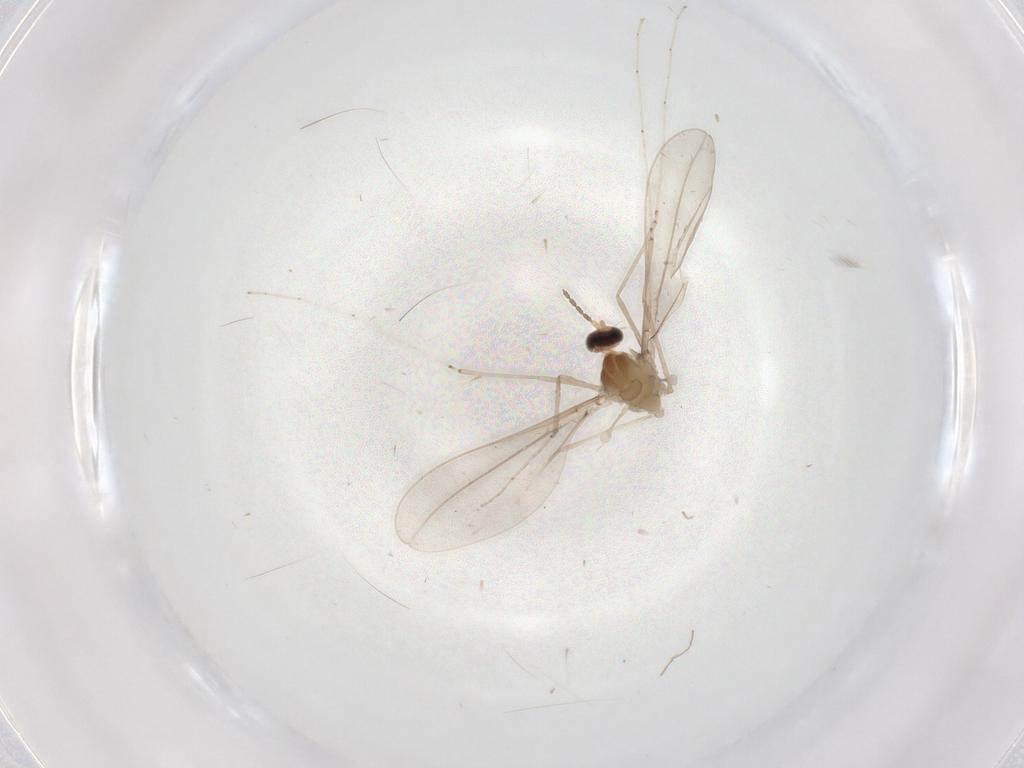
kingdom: Animalia
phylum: Arthropoda
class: Insecta
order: Diptera
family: Cecidomyiidae
